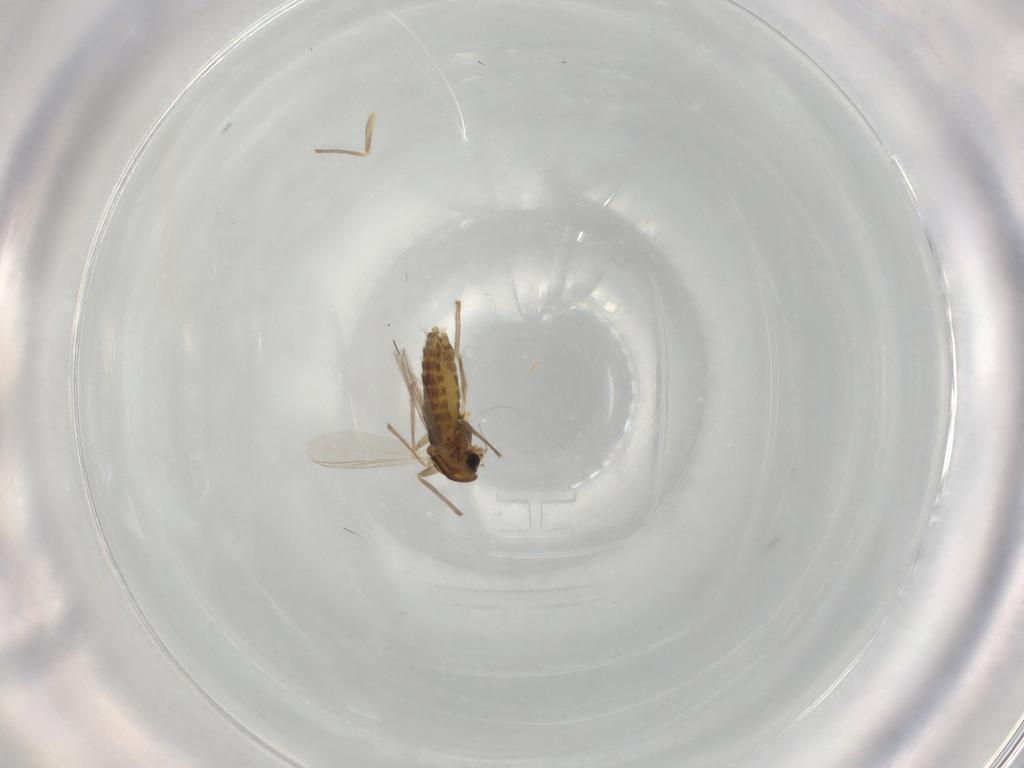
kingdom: Animalia
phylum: Arthropoda
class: Insecta
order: Diptera
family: Chironomidae
